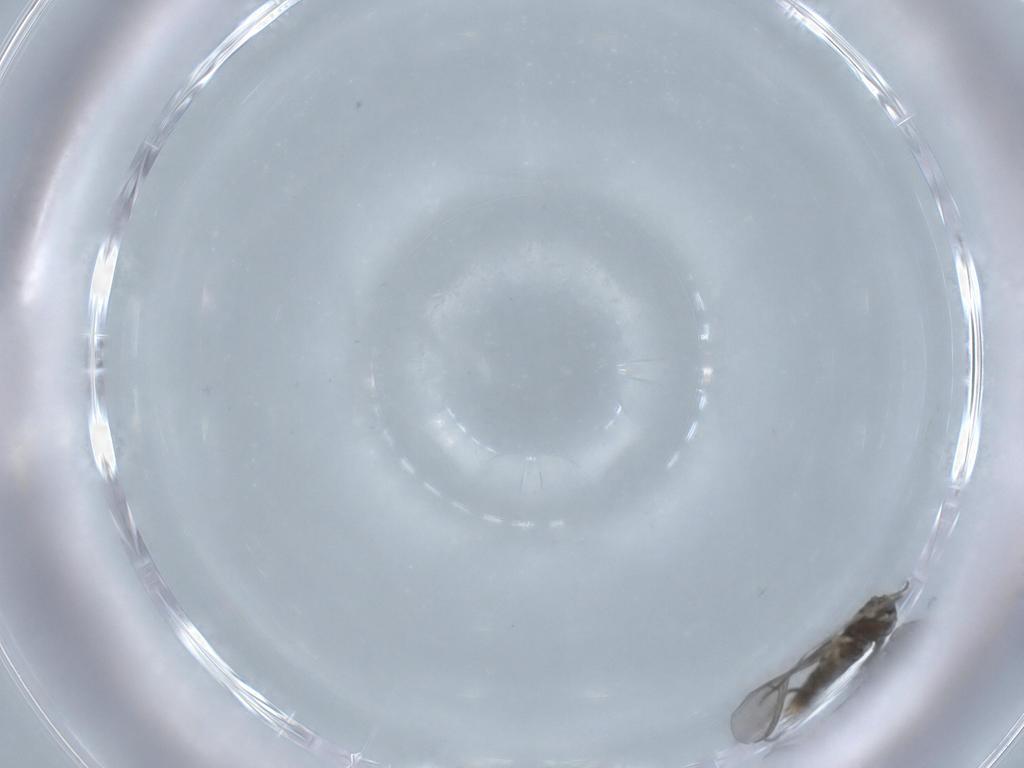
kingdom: Animalia
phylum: Arthropoda
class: Insecta
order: Diptera
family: Chironomidae
